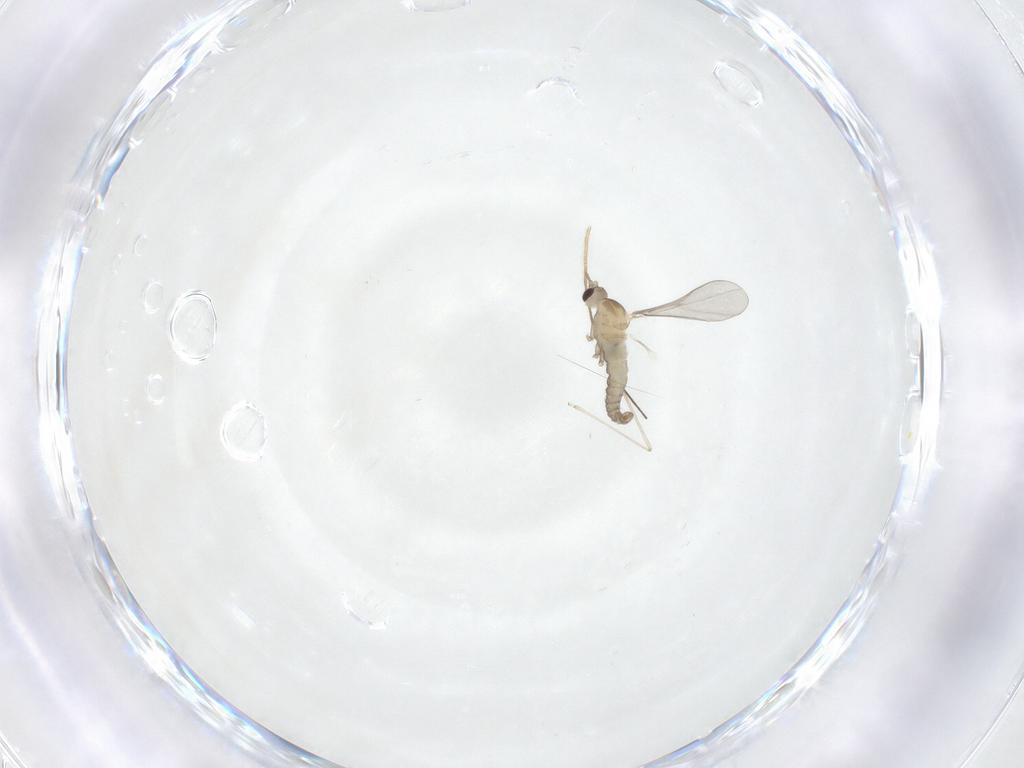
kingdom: Animalia
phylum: Arthropoda
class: Insecta
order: Diptera
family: Cecidomyiidae
